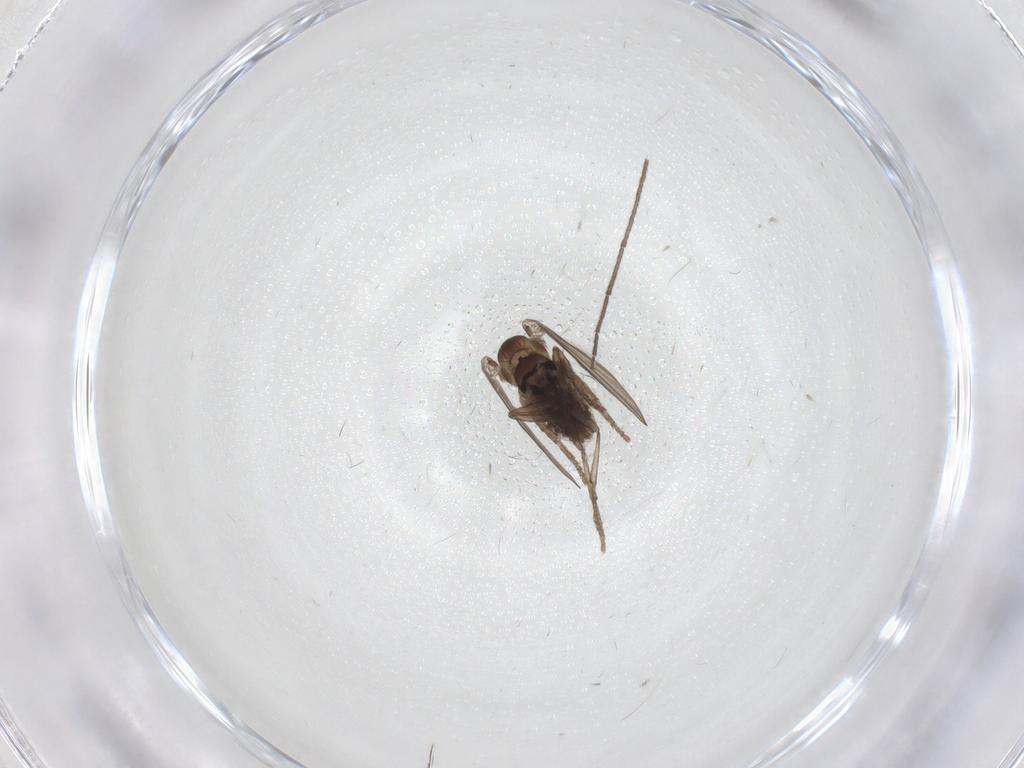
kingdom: Animalia
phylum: Arthropoda
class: Insecta
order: Diptera
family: Chironomidae
